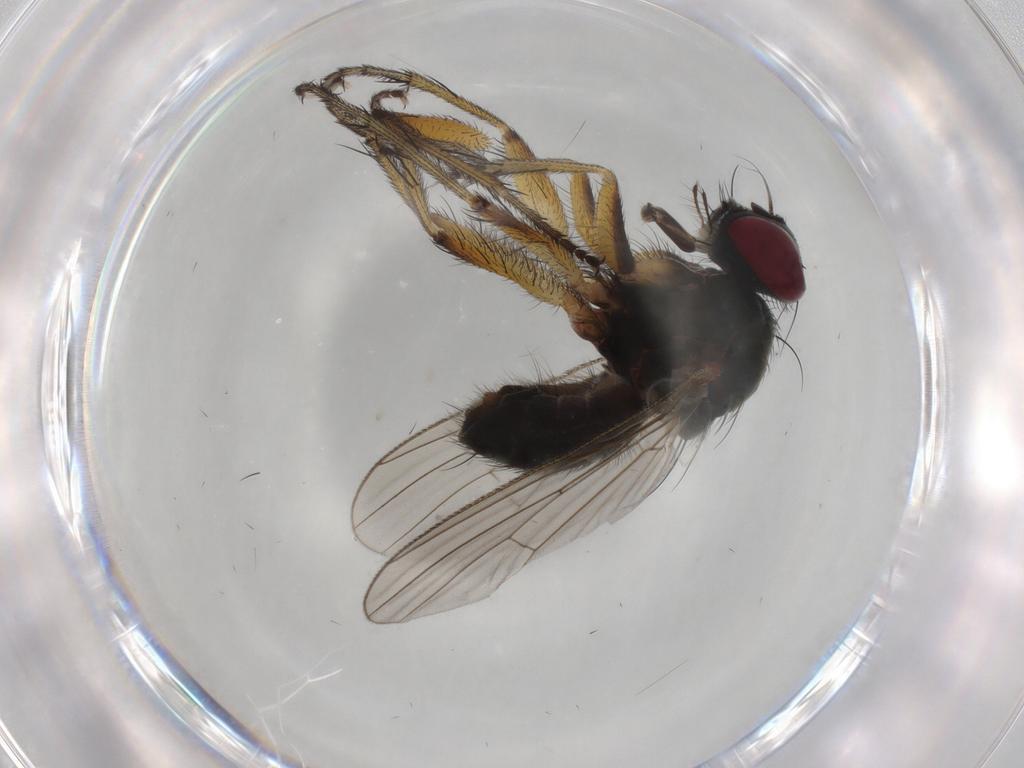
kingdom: Animalia
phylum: Arthropoda
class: Insecta
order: Diptera
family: Muscidae
